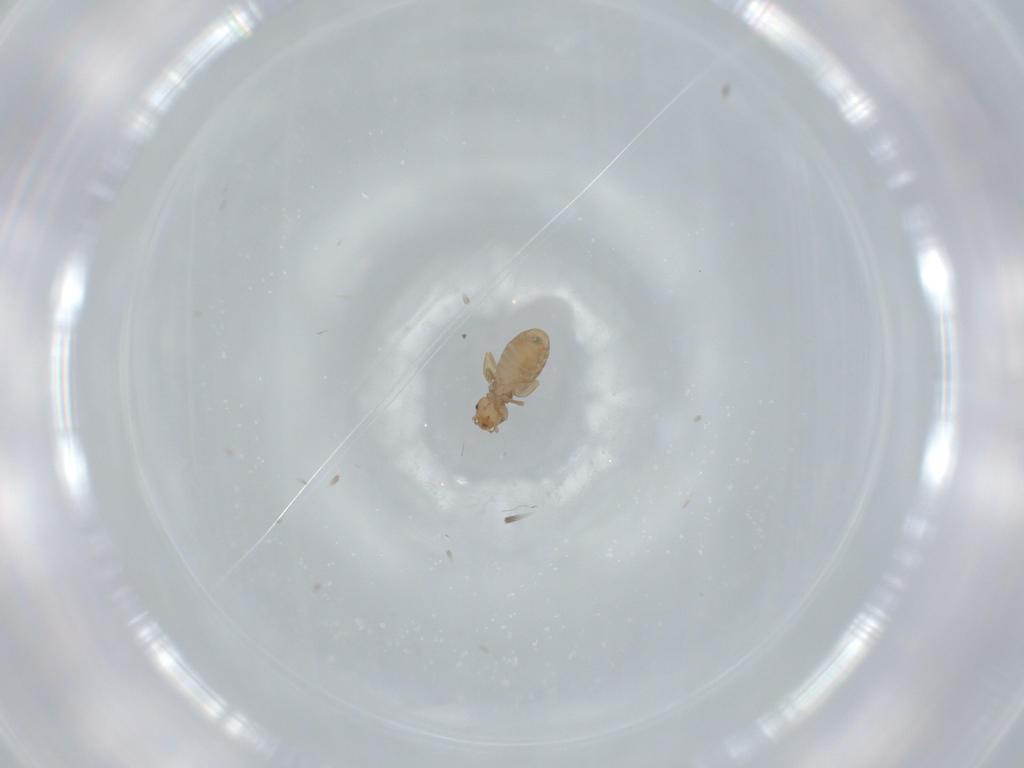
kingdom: Animalia
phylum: Arthropoda
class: Insecta
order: Psocodea
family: Liposcelididae
